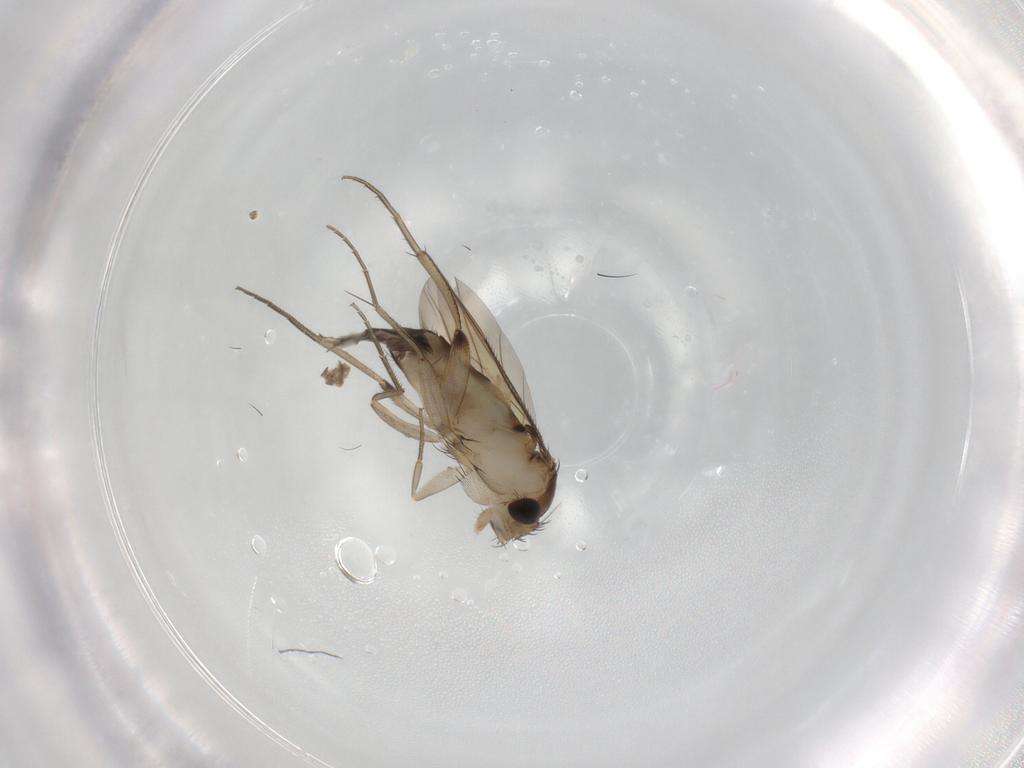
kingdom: Animalia
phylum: Arthropoda
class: Insecta
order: Diptera
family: Phoridae
